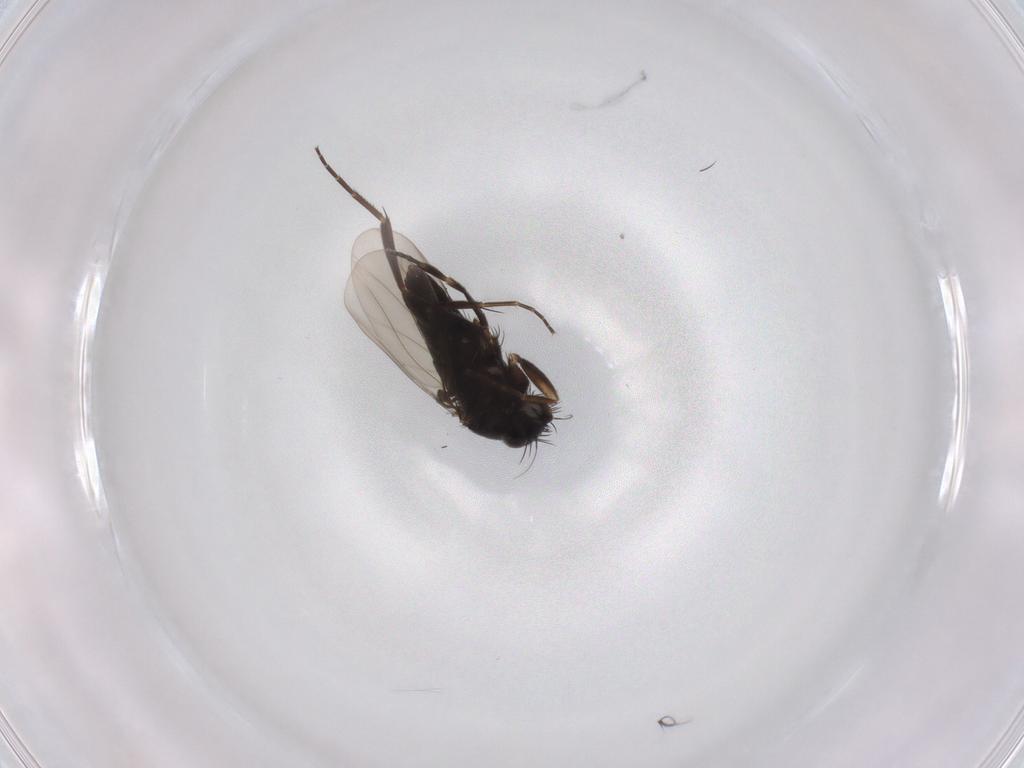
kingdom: Animalia
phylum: Arthropoda
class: Insecta
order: Diptera
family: Phoridae
